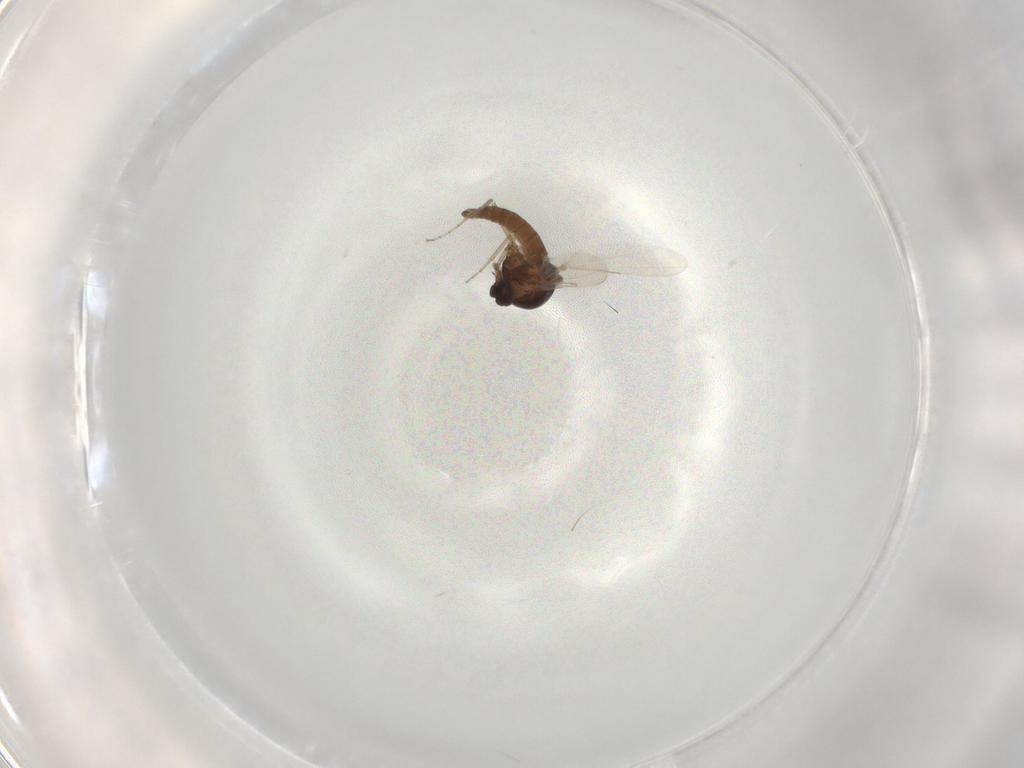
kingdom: Animalia
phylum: Arthropoda
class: Insecta
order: Diptera
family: Ceratopogonidae
